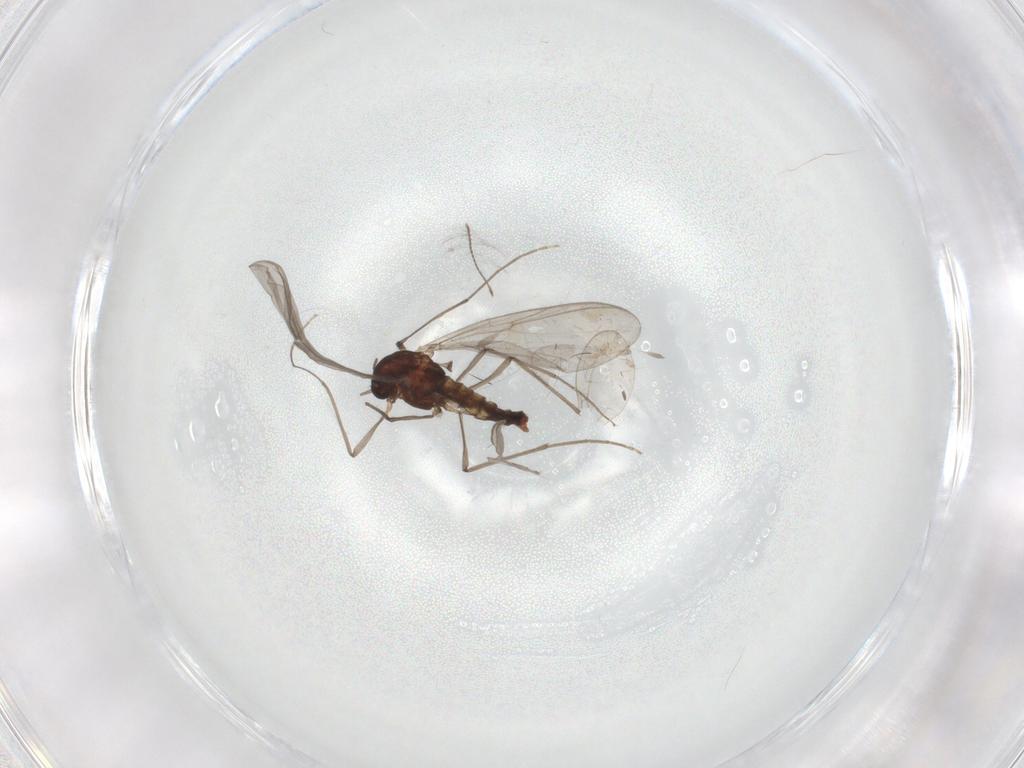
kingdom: Animalia
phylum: Arthropoda
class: Insecta
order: Diptera
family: Chironomidae
